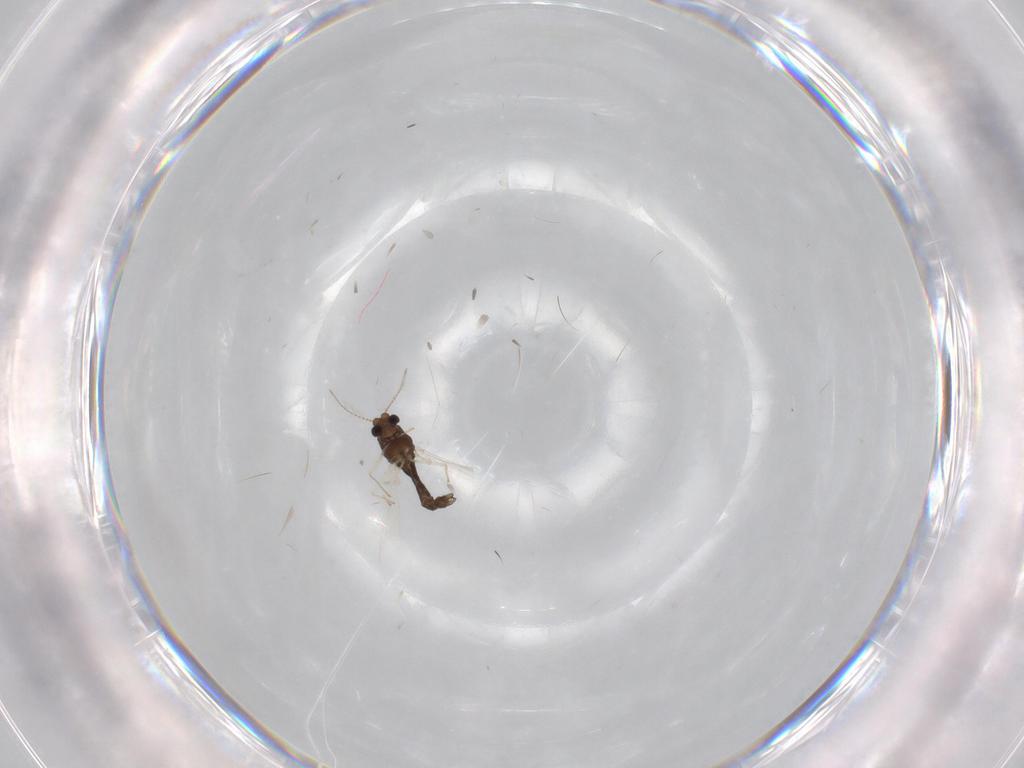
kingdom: Animalia
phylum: Arthropoda
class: Insecta
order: Diptera
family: Chironomidae
